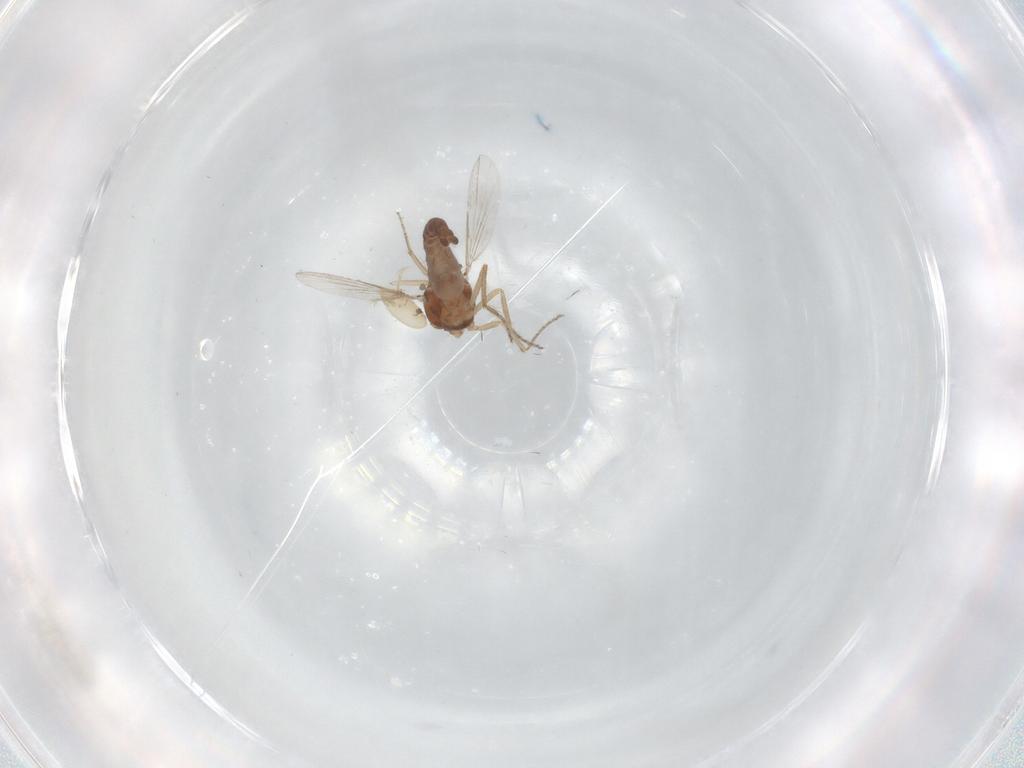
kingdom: Animalia
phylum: Arthropoda
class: Insecta
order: Diptera
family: Ceratopogonidae
